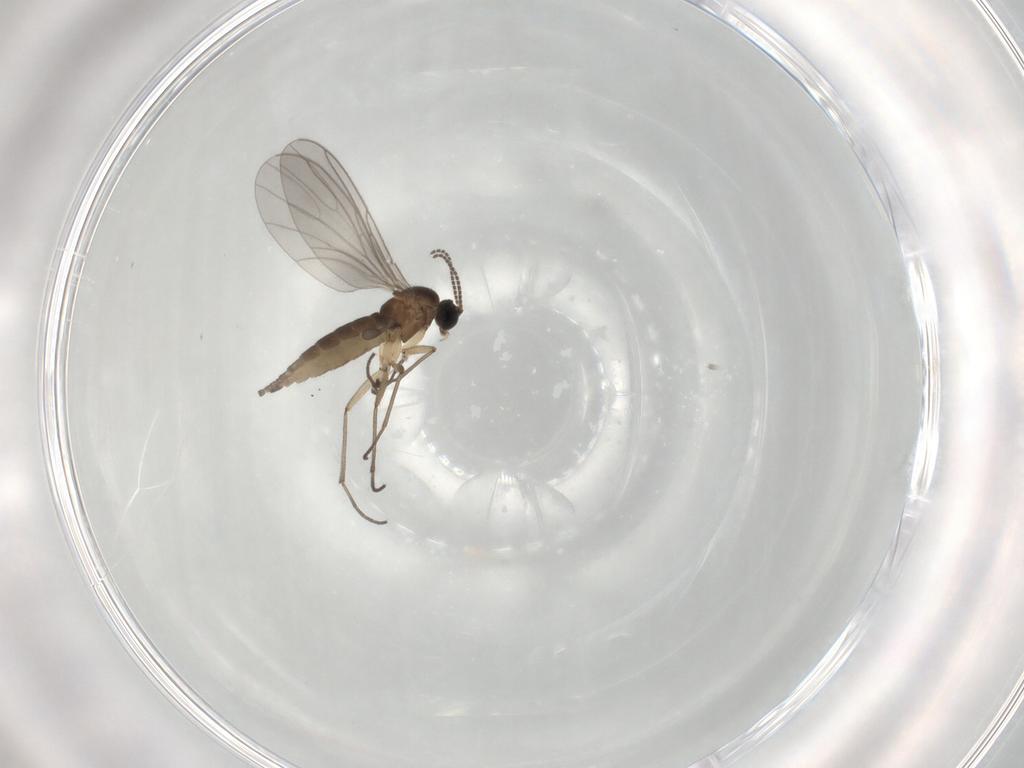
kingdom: Animalia
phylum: Arthropoda
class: Insecta
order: Diptera
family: Sciaridae
